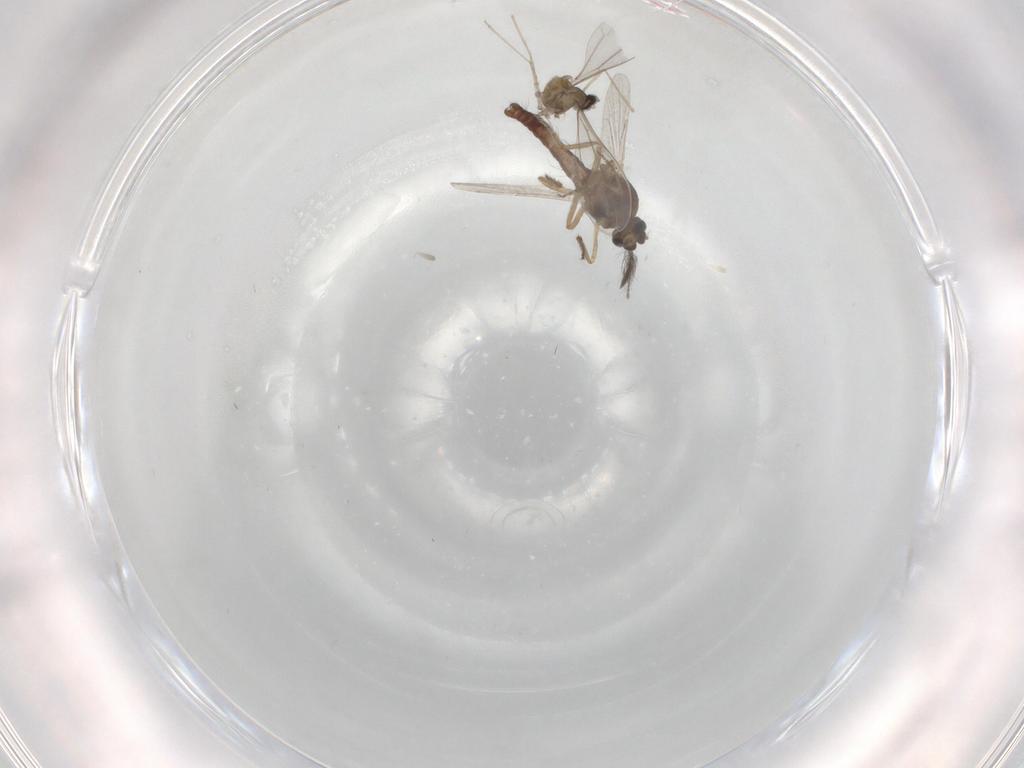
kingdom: Animalia
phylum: Arthropoda
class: Insecta
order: Diptera
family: Ceratopogonidae
